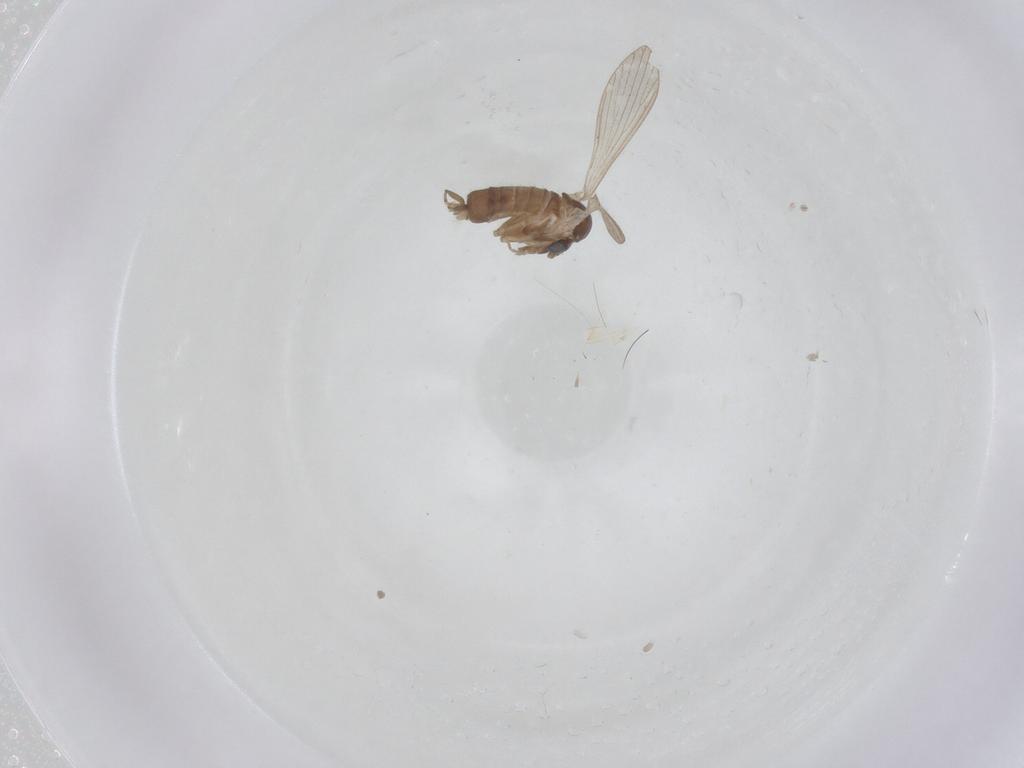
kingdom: Animalia
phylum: Arthropoda
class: Insecta
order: Diptera
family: Psychodidae
